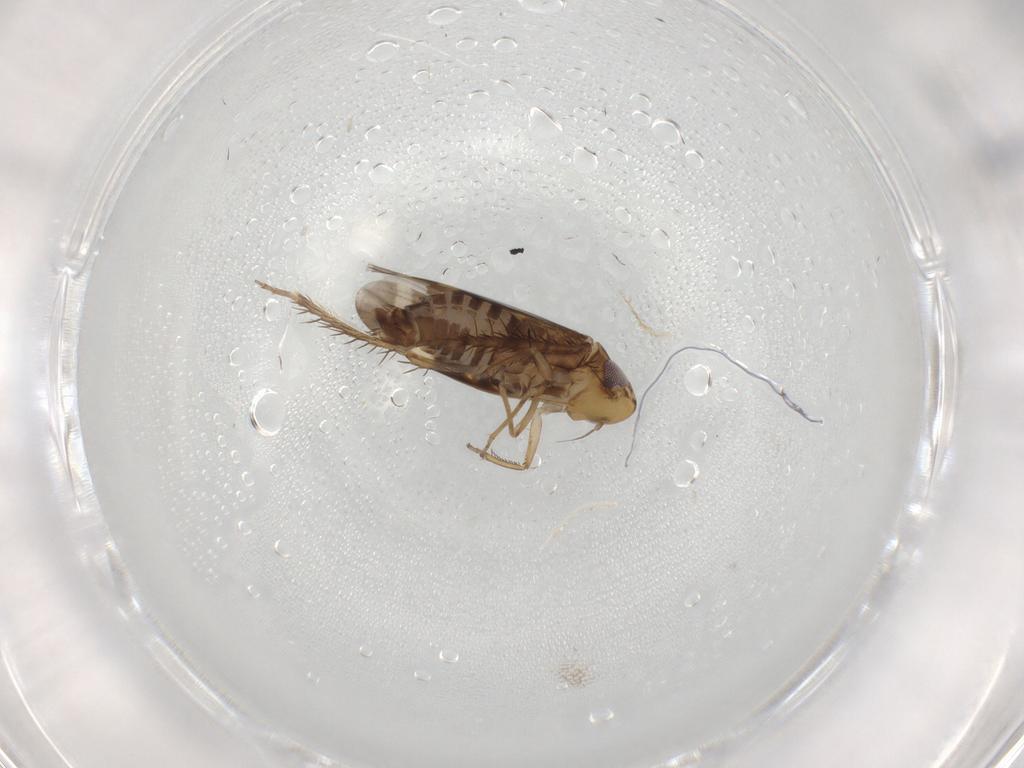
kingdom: Animalia
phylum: Arthropoda
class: Insecta
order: Hemiptera
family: Cicadellidae
